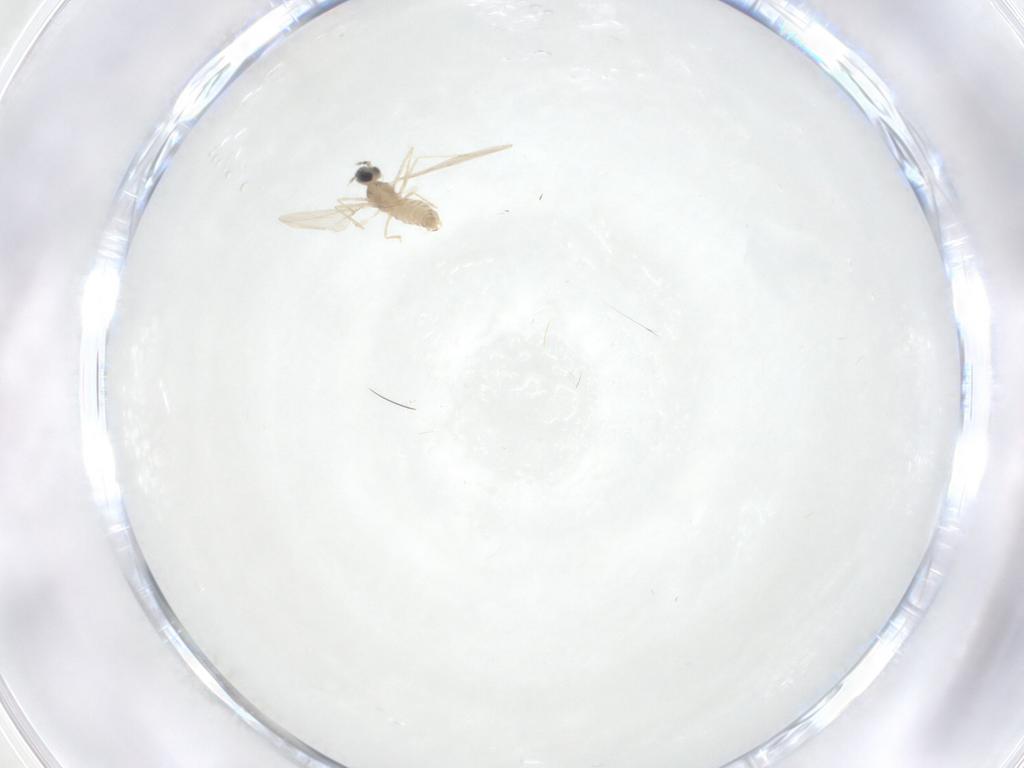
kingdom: Animalia
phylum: Arthropoda
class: Insecta
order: Diptera
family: Cecidomyiidae
